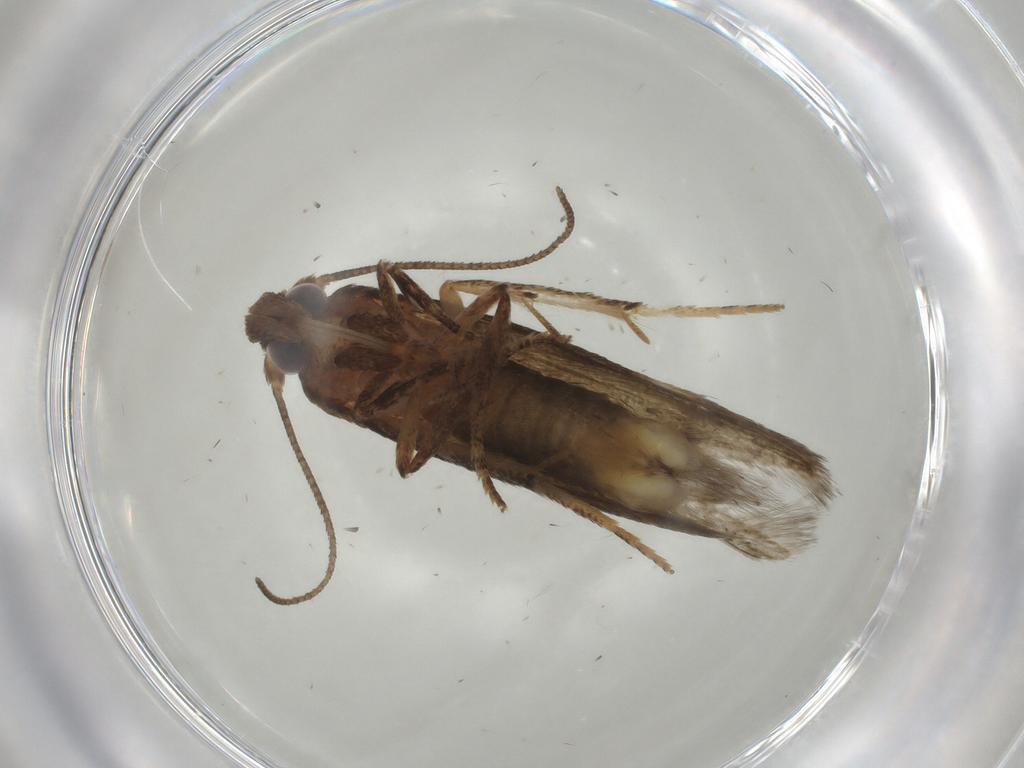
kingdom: Animalia
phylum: Arthropoda
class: Insecta
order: Lepidoptera
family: Blastobasidae
